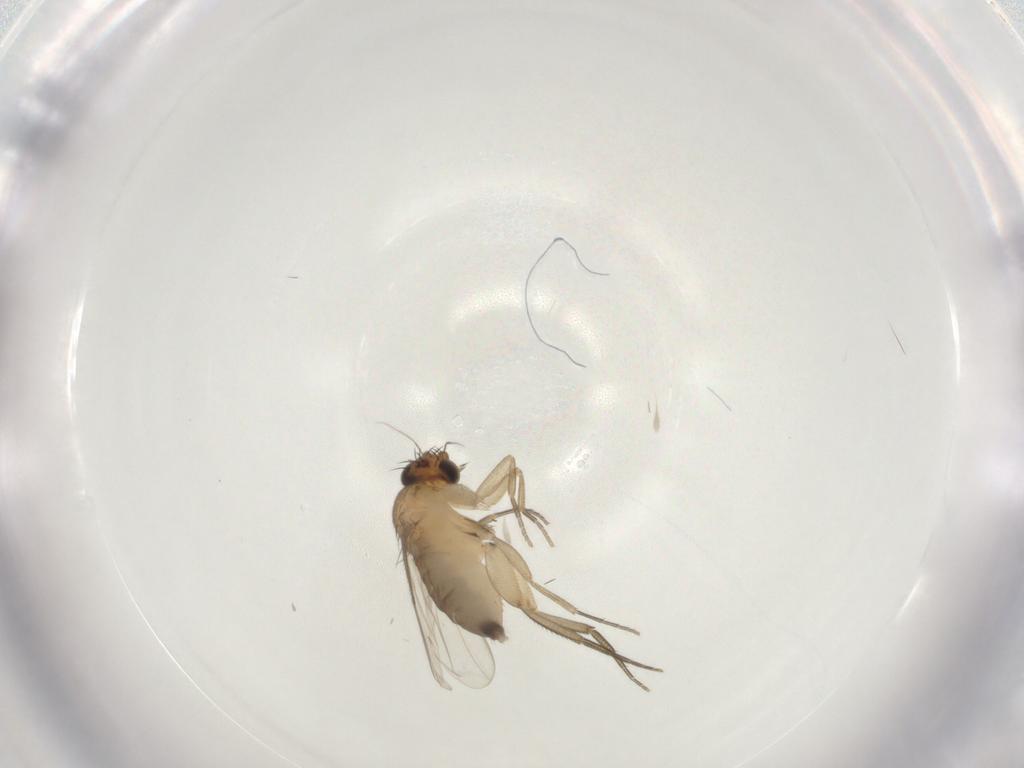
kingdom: Animalia
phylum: Arthropoda
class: Insecta
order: Diptera
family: Phoridae
